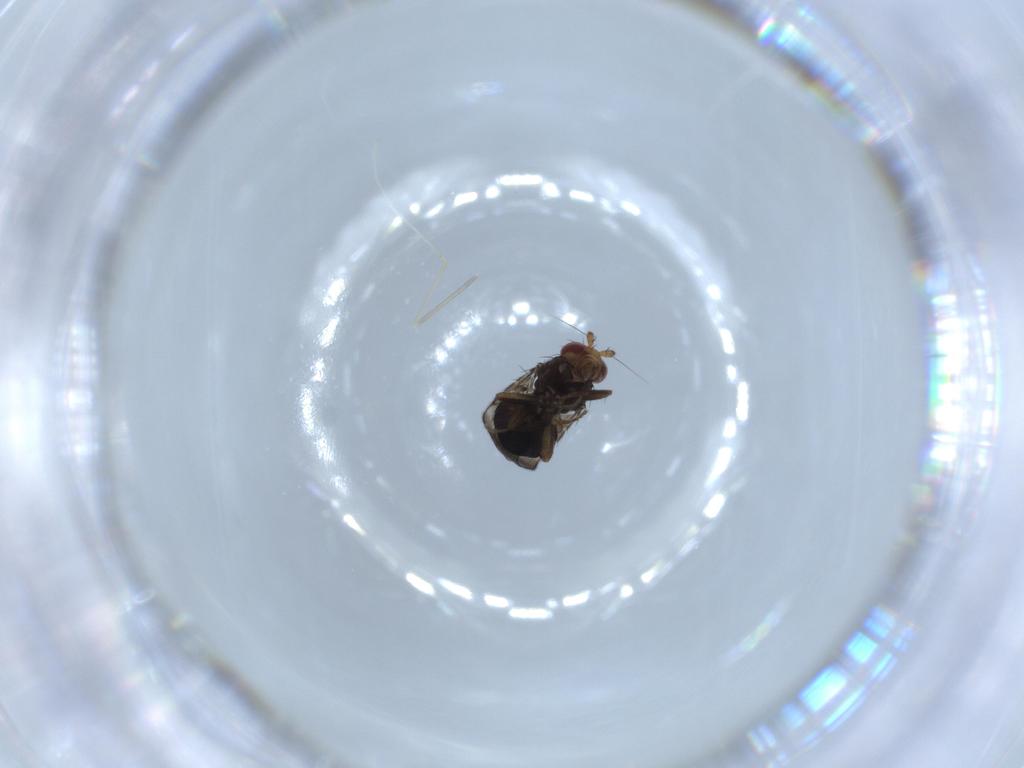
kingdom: Animalia
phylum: Arthropoda
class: Insecta
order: Diptera
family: Sphaeroceridae
